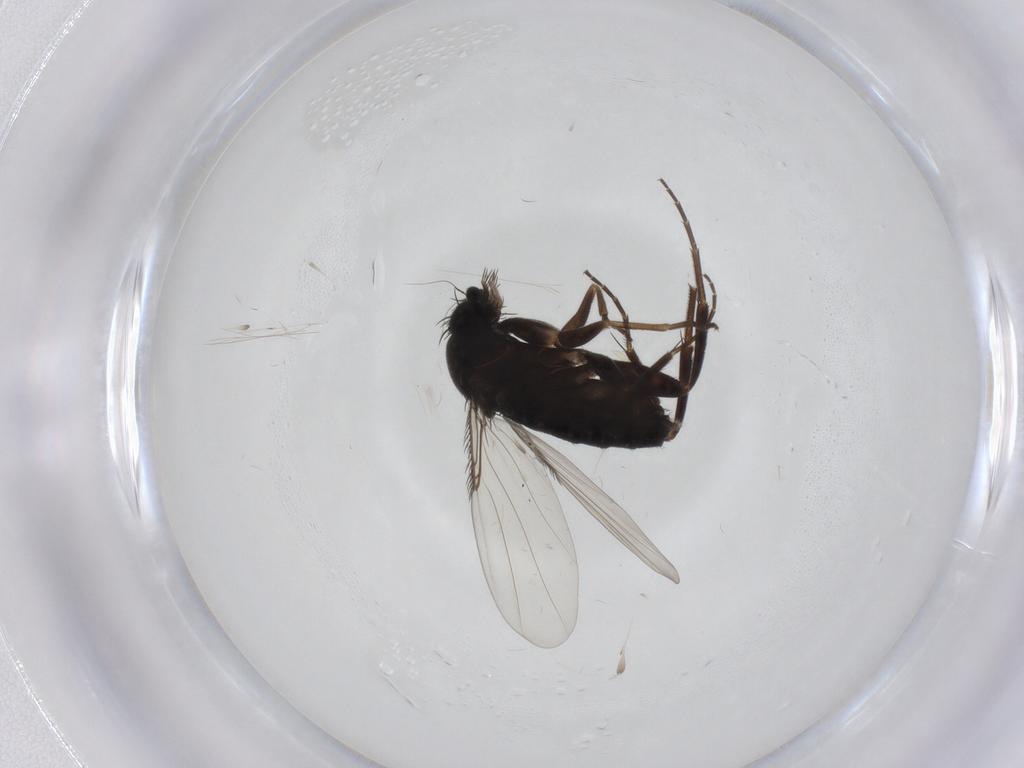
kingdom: Animalia
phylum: Arthropoda
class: Insecta
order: Diptera
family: Phoridae
